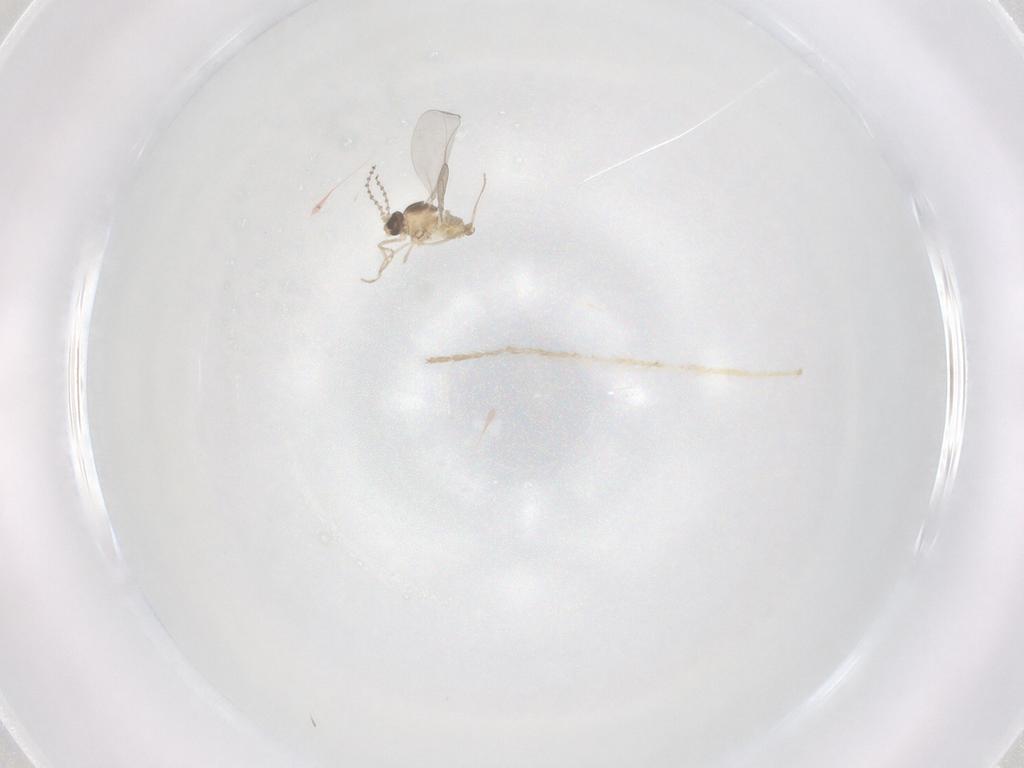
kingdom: Animalia
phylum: Arthropoda
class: Insecta
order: Diptera
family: Cecidomyiidae
